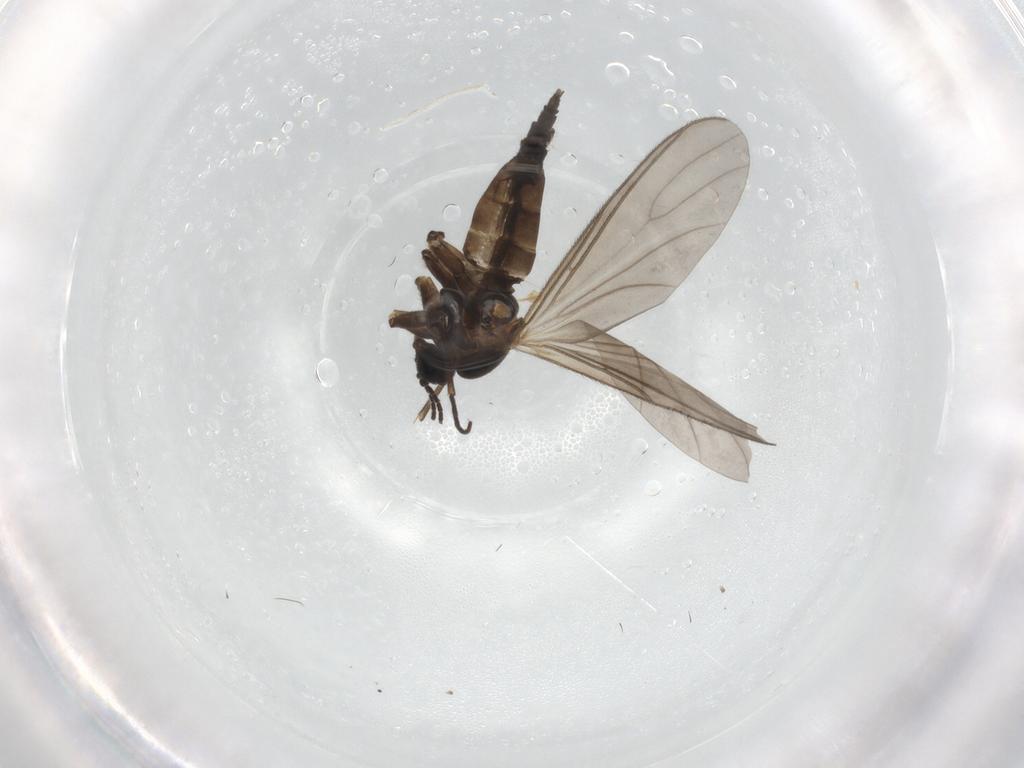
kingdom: Animalia
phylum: Arthropoda
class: Insecta
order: Diptera
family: Sciaridae
